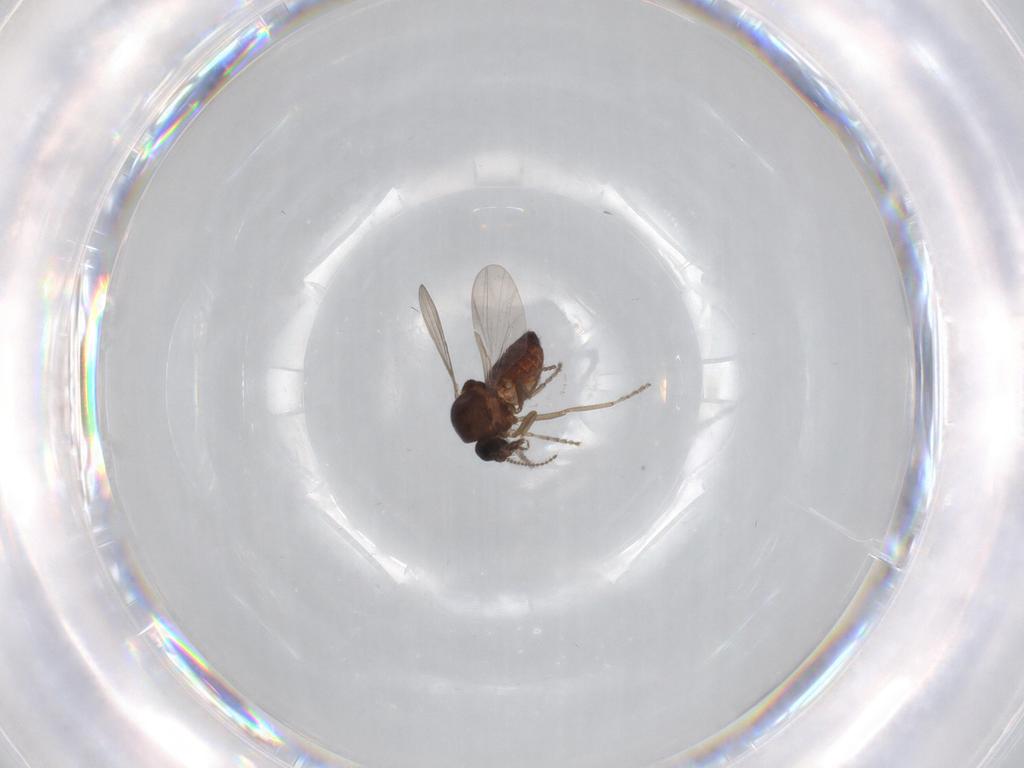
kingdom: Animalia
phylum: Arthropoda
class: Insecta
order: Diptera
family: Ceratopogonidae
